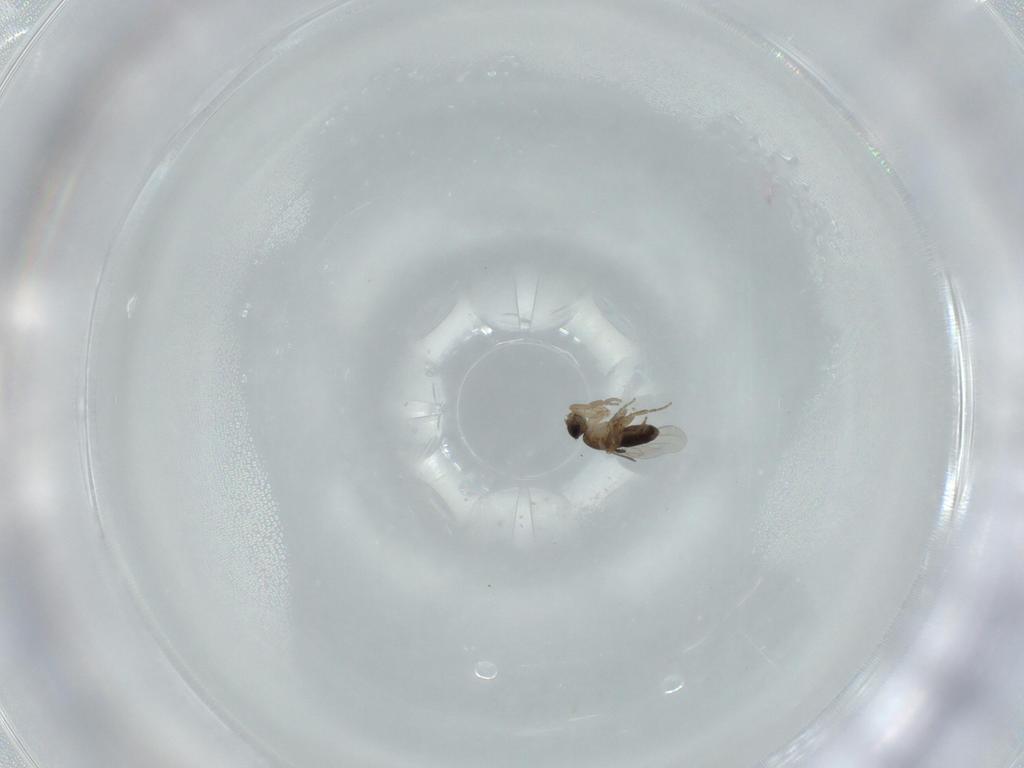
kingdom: Animalia
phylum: Arthropoda
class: Insecta
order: Diptera
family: Phoridae
